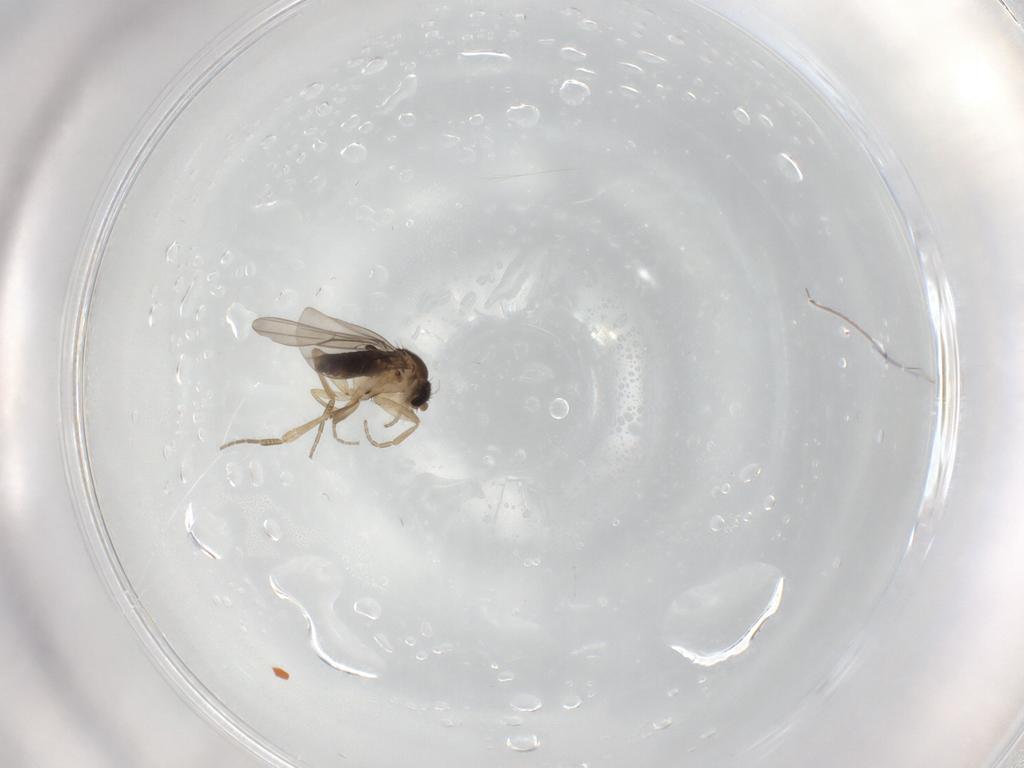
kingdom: Animalia
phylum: Arthropoda
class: Insecta
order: Diptera
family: Phoridae
